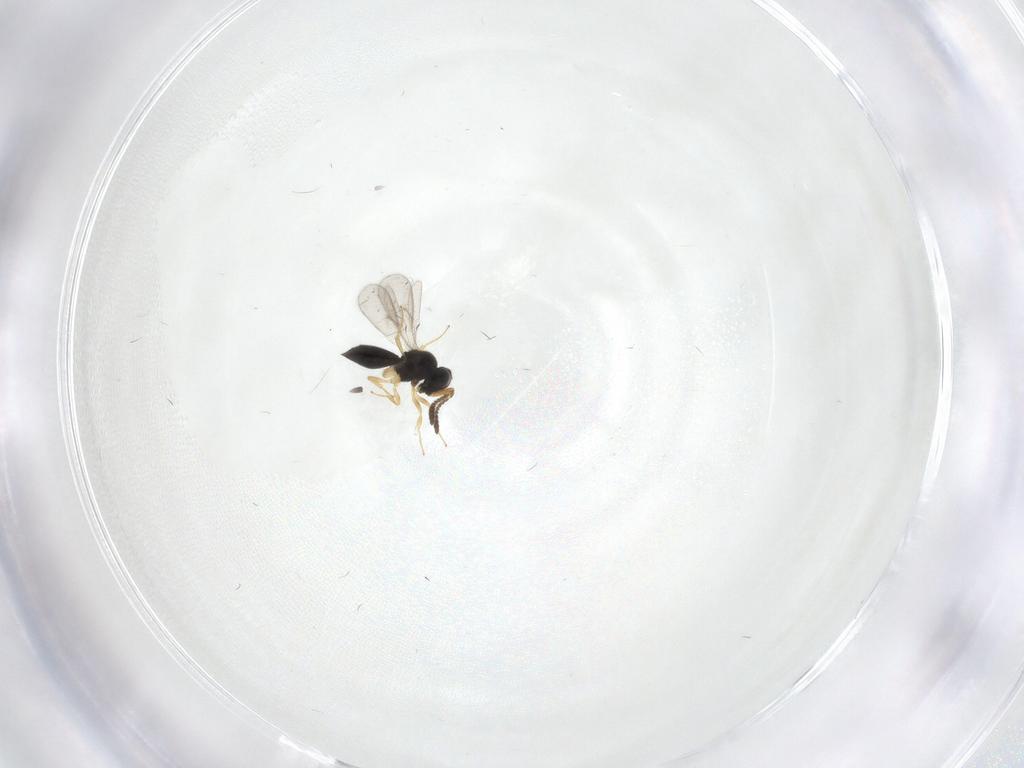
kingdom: Animalia
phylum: Arthropoda
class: Insecta
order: Hymenoptera
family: Scelionidae
